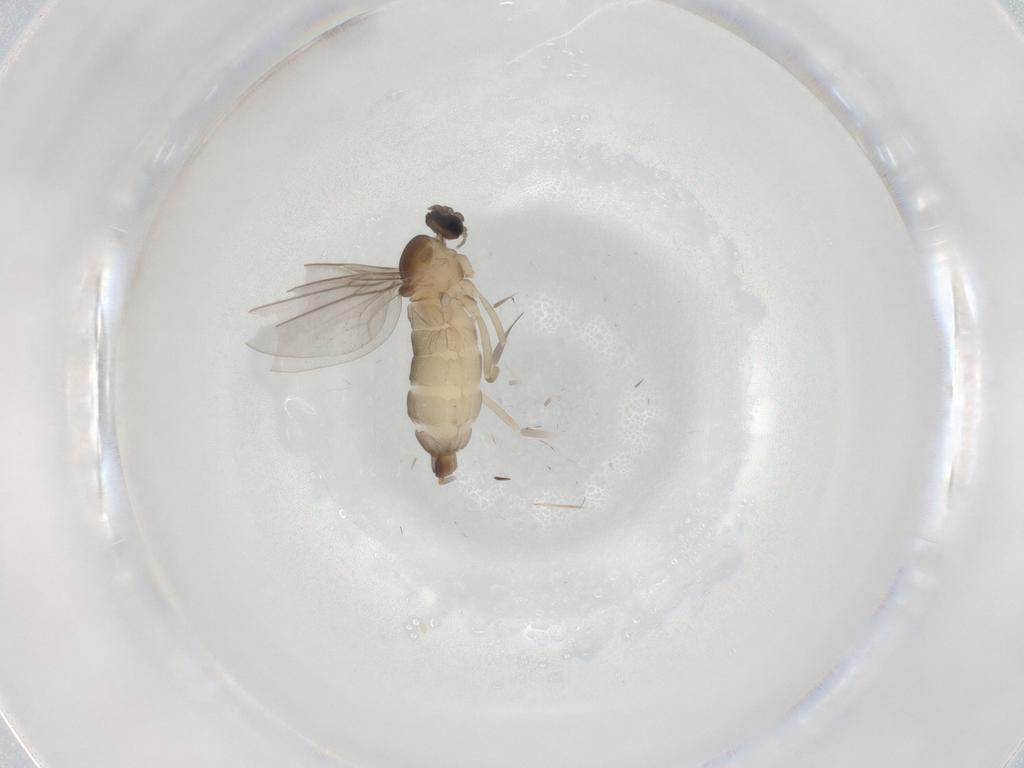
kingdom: Animalia
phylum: Arthropoda
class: Insecta
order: Diptera
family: Cecidomyiidae
